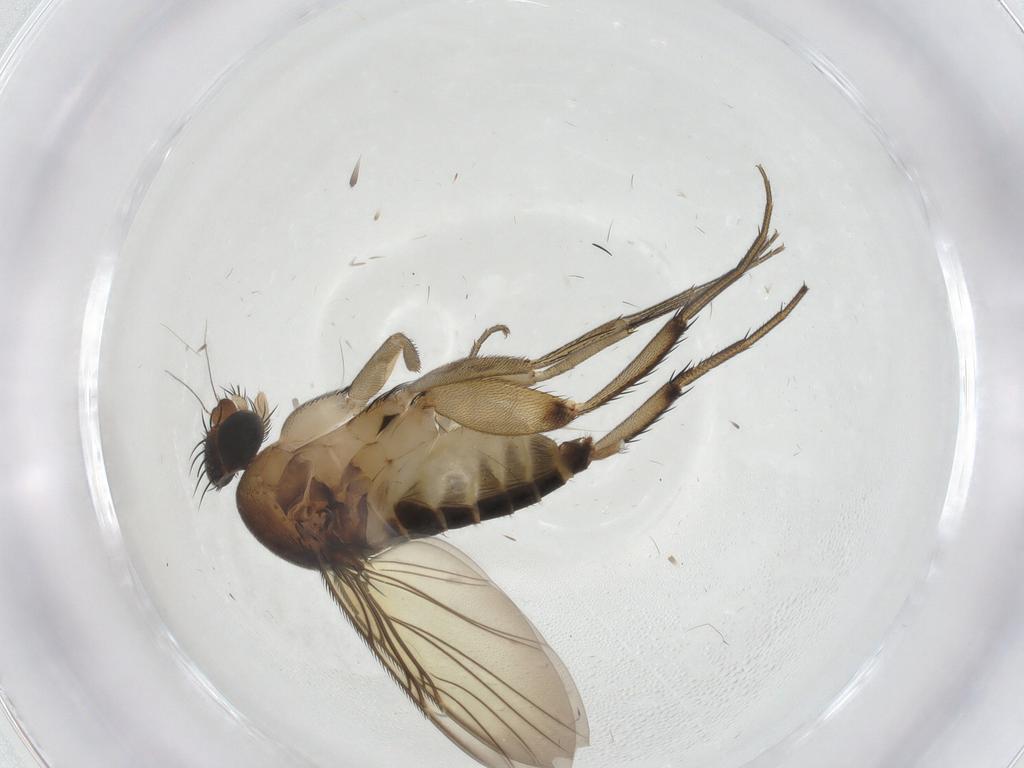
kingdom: Animalia
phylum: Arthropoda
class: Insecta
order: Diptera
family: Phoridae
